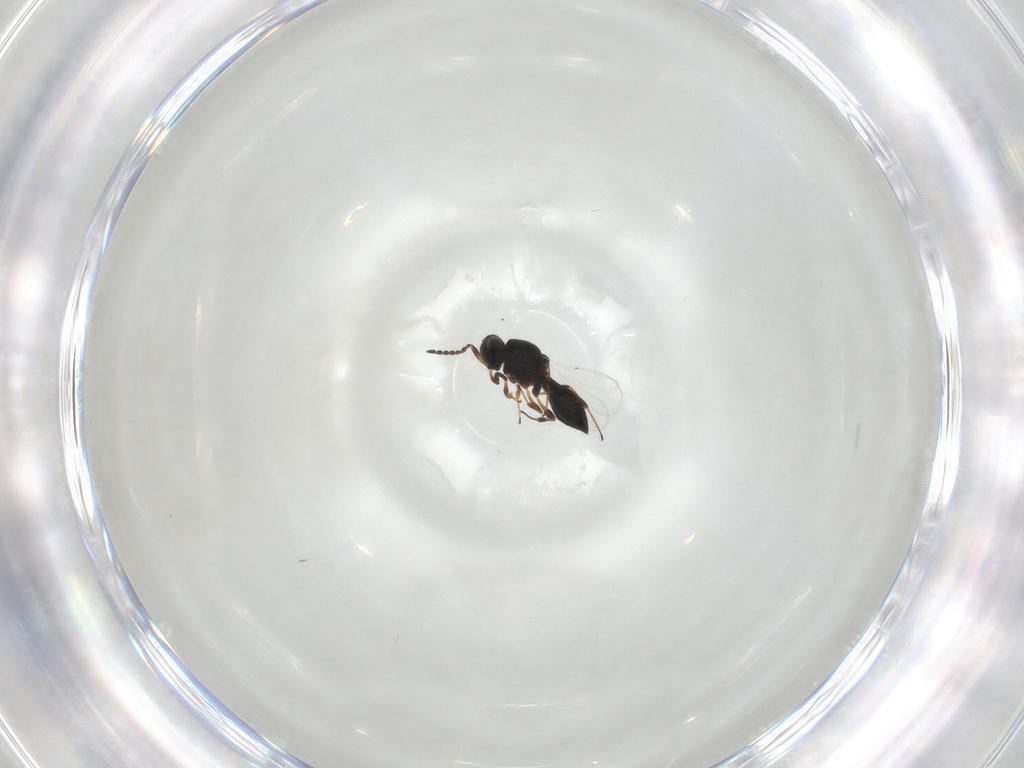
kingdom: Animalia
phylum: Arthropoda
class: Insecta
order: Hymenoptera
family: Platygastridae
